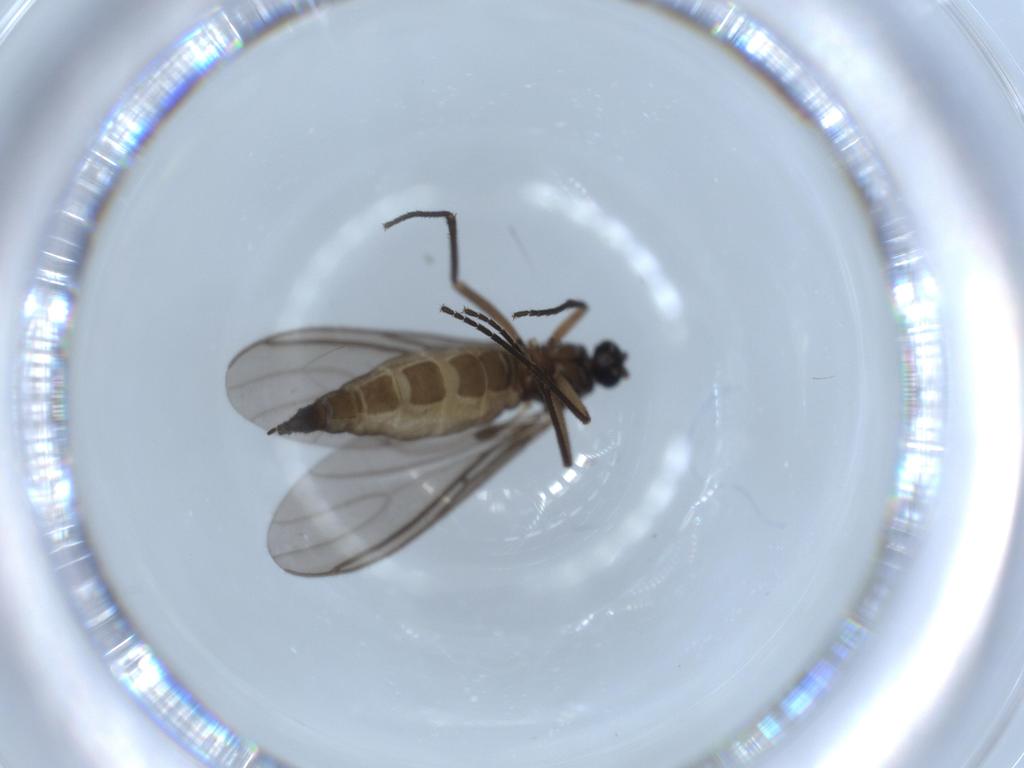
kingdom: Animalia
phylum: Arthropoda
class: Insecta
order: Diptera
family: Sciaridae
